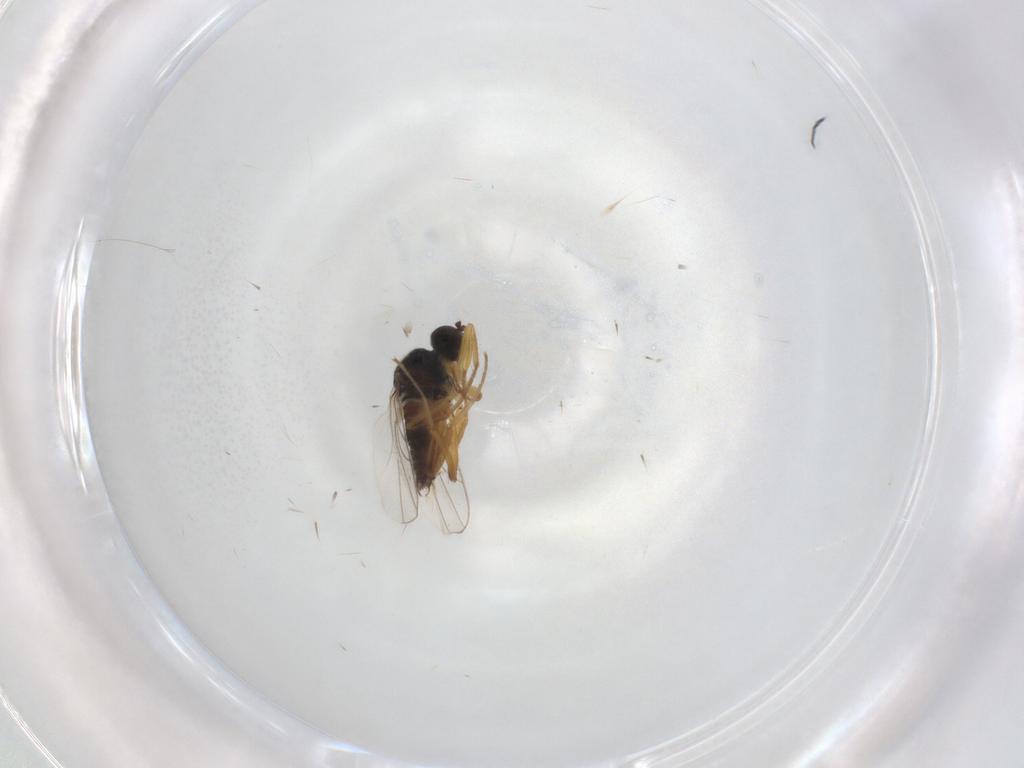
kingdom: Animalia
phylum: Arthropoda
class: Insecta
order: Diptera
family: Hybotidae
